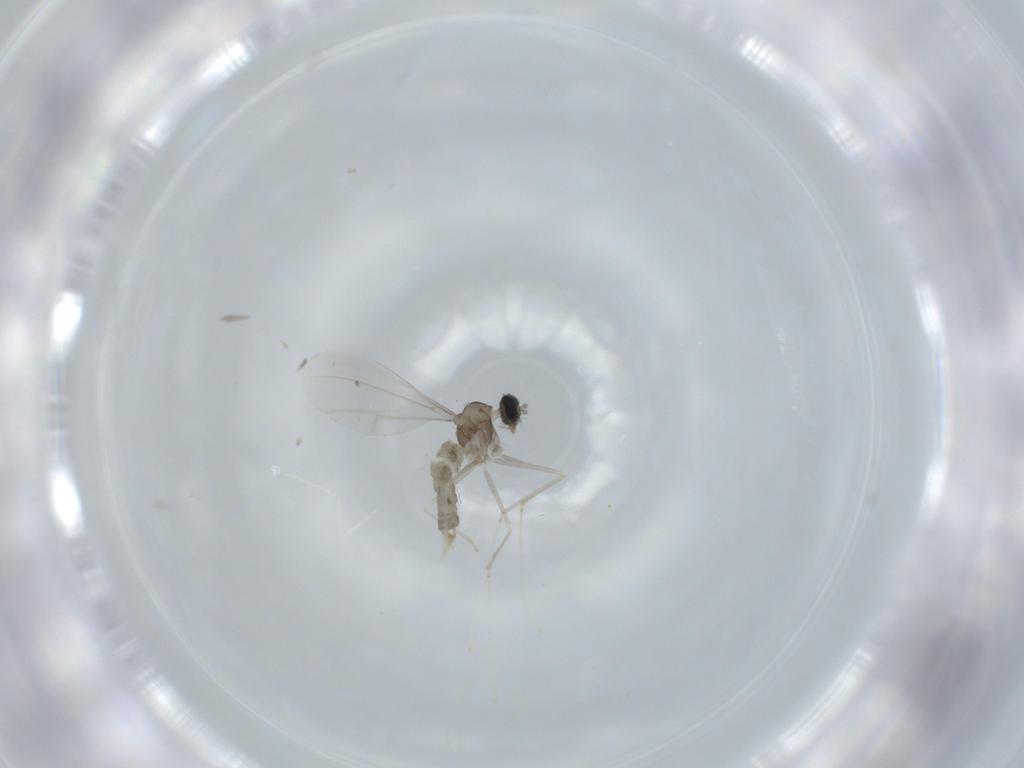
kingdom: Animalia
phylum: Arthropoda
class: Insecta
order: Diptera
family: Cecidomyiidae
